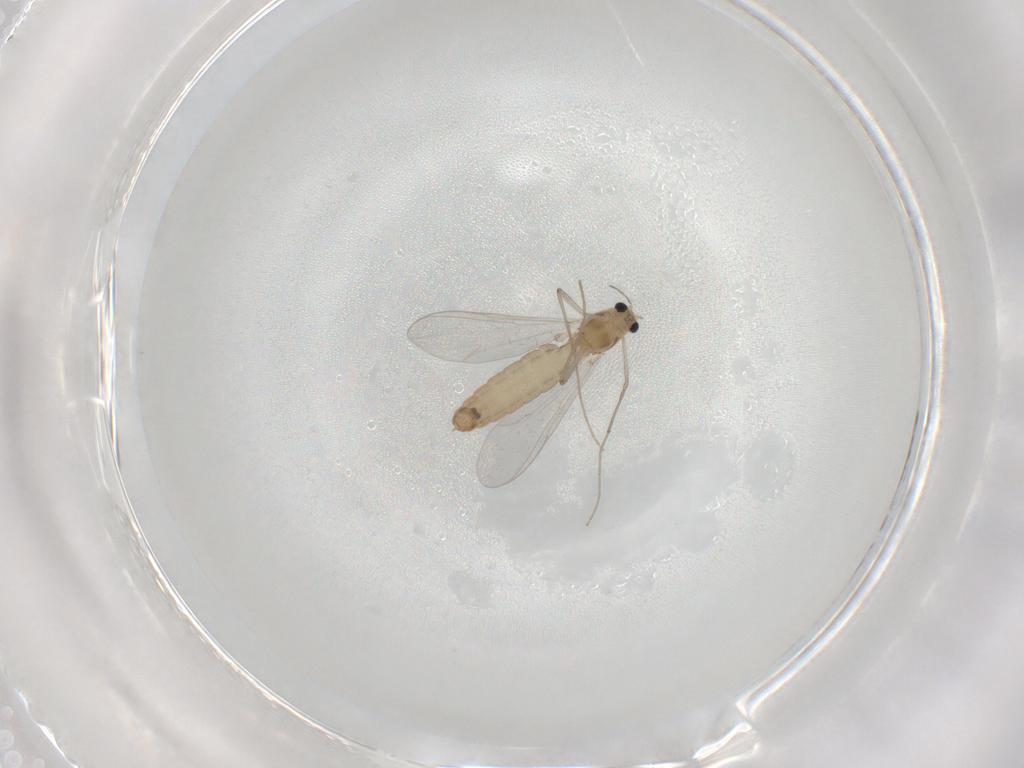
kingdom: Animalia
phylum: Arthropoda
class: Insecta
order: Diptera
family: Chironomidae
